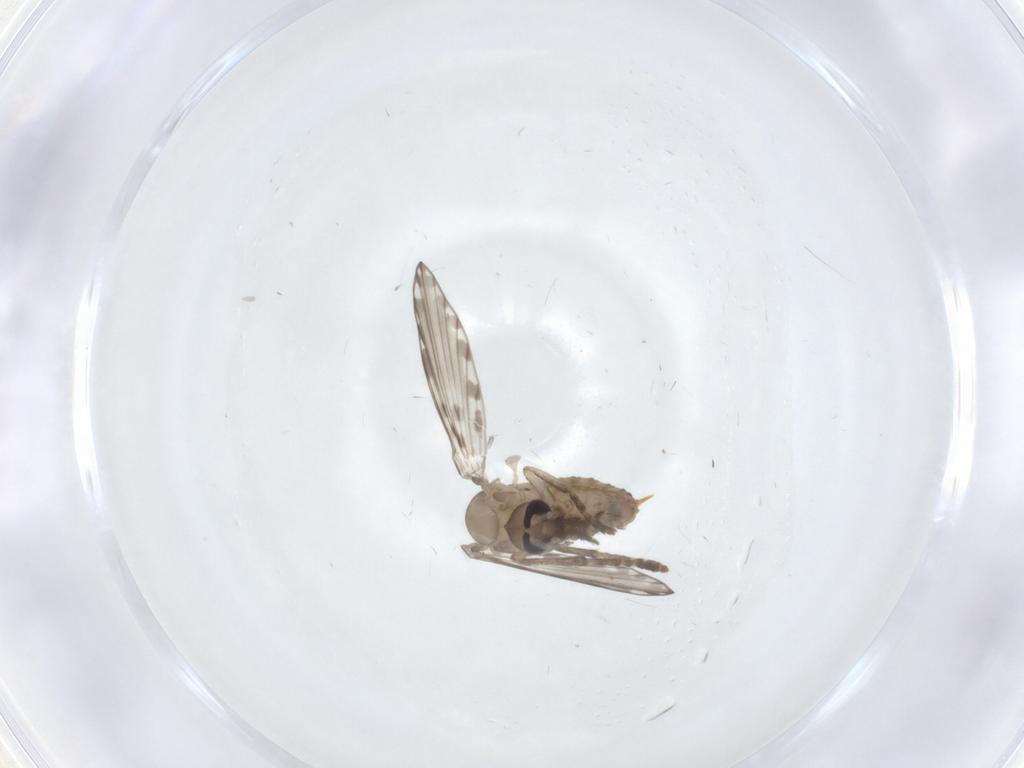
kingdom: Animalia
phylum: Arthropoda
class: Insecta
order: Diptera
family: Psychodidae
